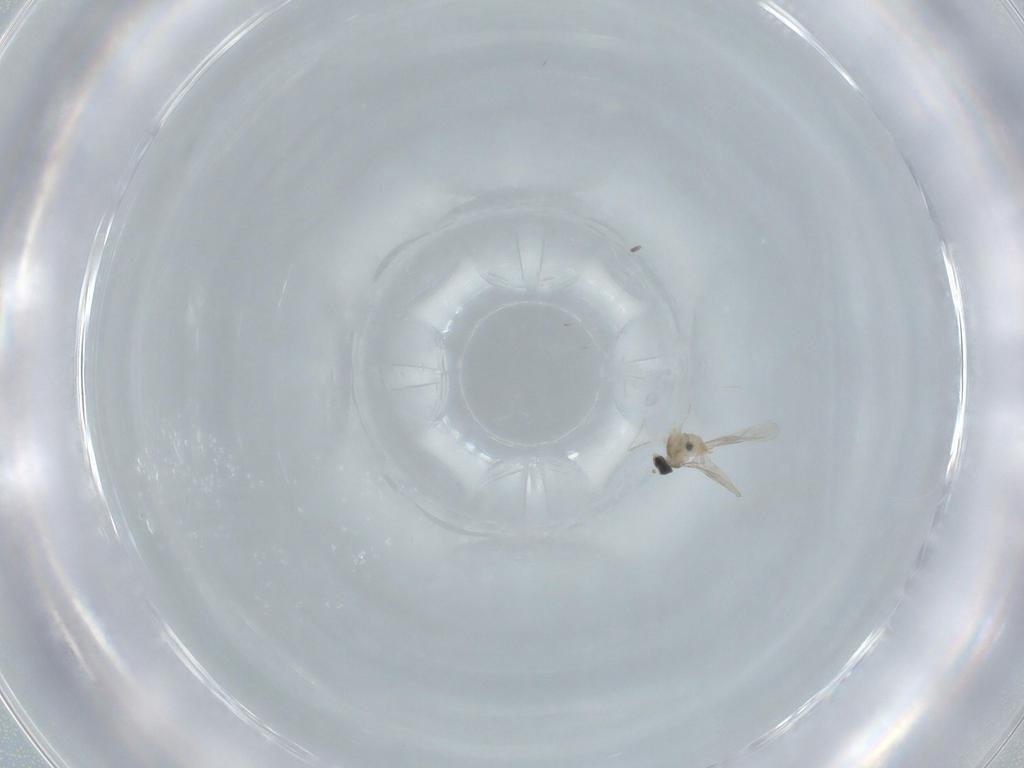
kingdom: Animalia
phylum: Arthropoda
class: Insecta
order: Diptera
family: Cecidomyiidae
